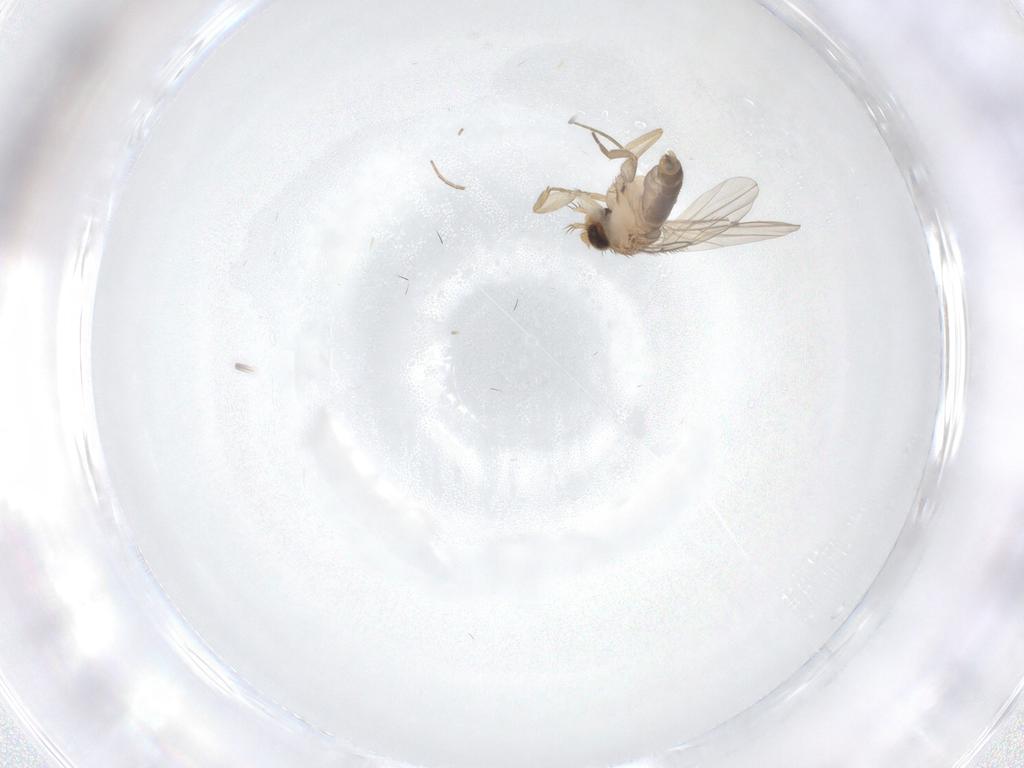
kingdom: Animalia
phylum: Arthropoda
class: Insecta
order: Diptera
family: Phoridae
